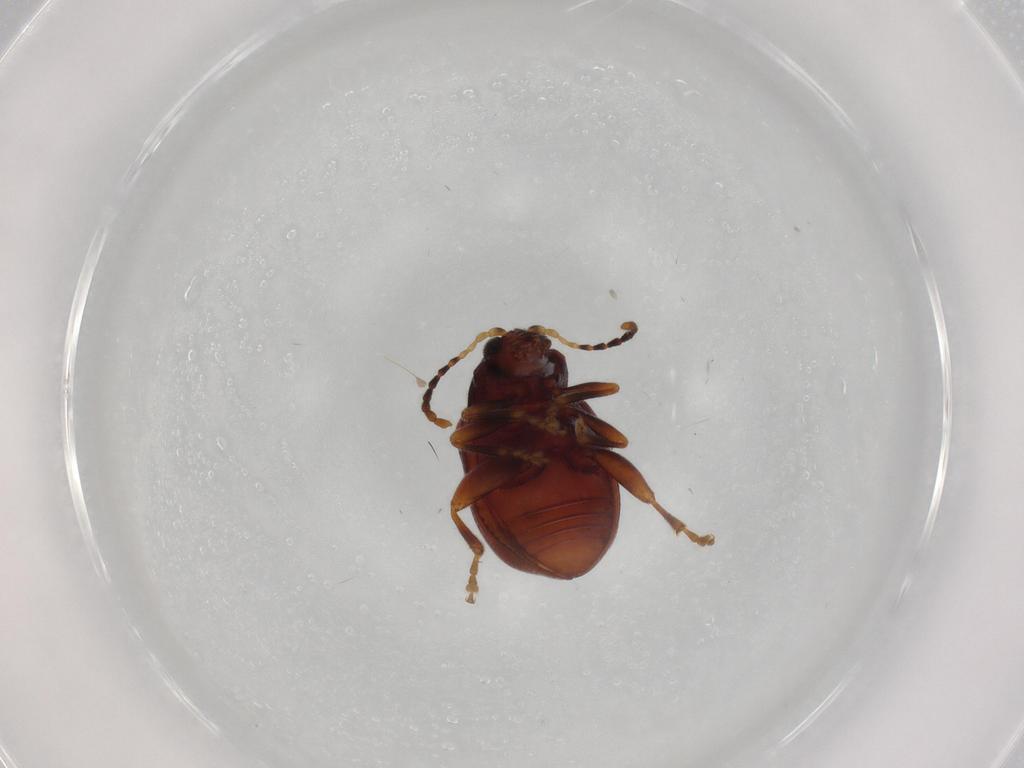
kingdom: Animalia
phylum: Arthropoda
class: Insecta
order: Coleoptera
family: Chrysomelidae
